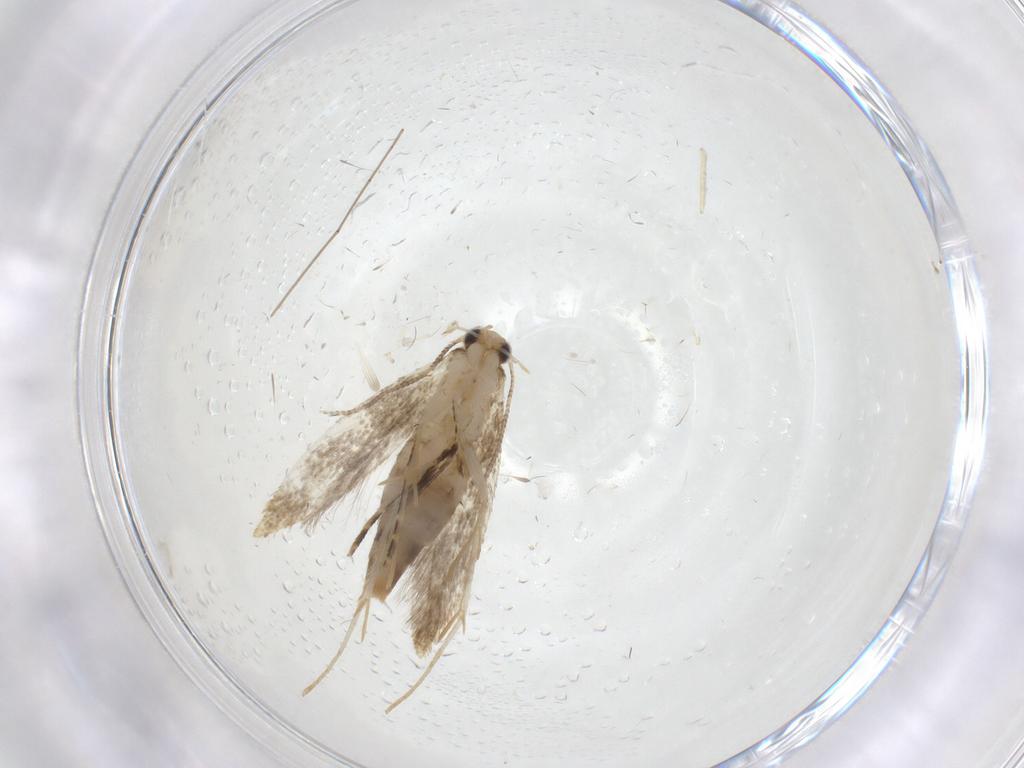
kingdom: Animalia
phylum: Arthropoda
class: Insecta
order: Lepidoptera
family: Tineidae
